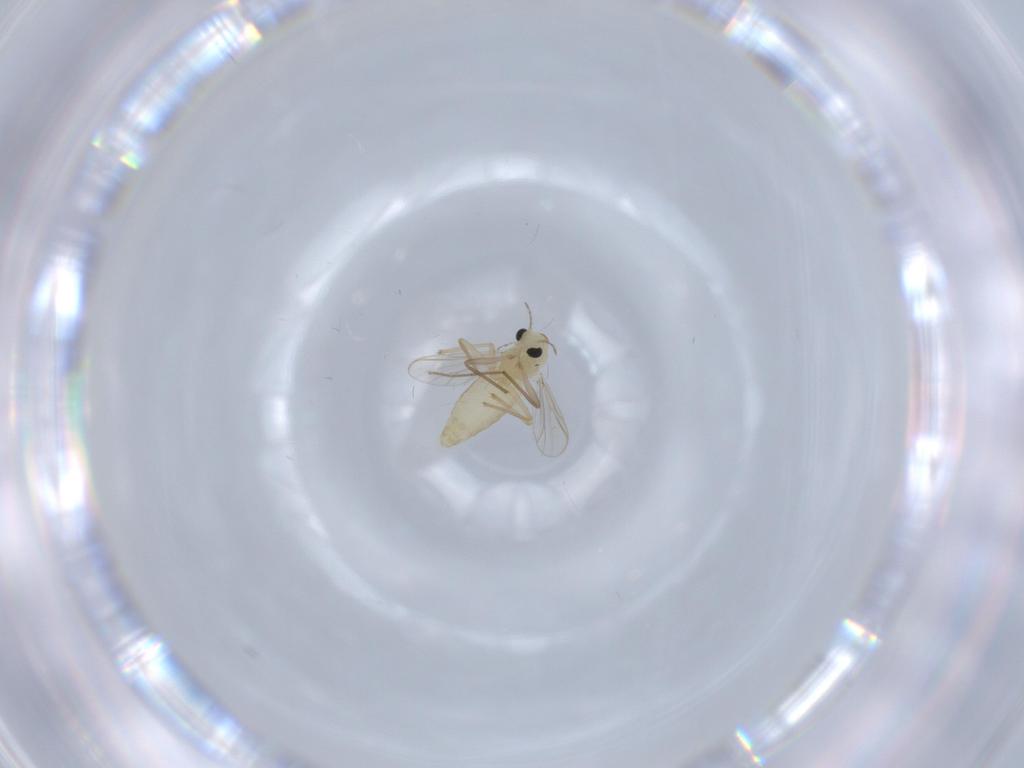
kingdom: Animalia
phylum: Arthropoda
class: Insecta
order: Diptera
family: Chironomidae
